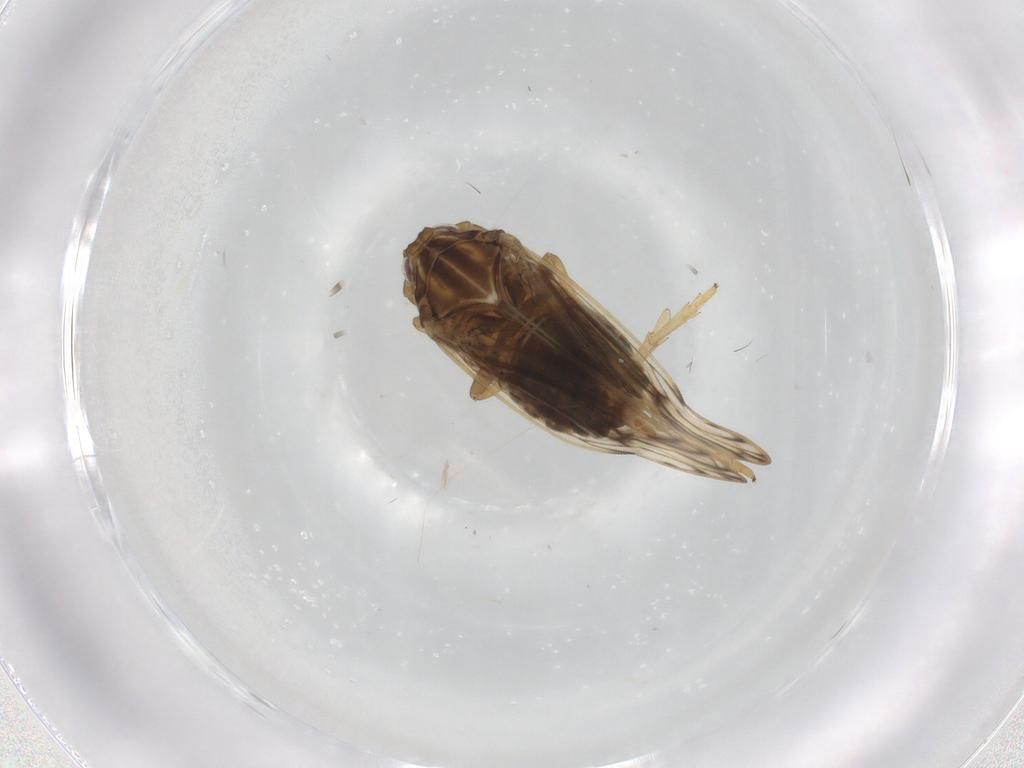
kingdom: Animalia
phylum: Arthropoda
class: Insecta
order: Hemiptera
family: Delphacidae
